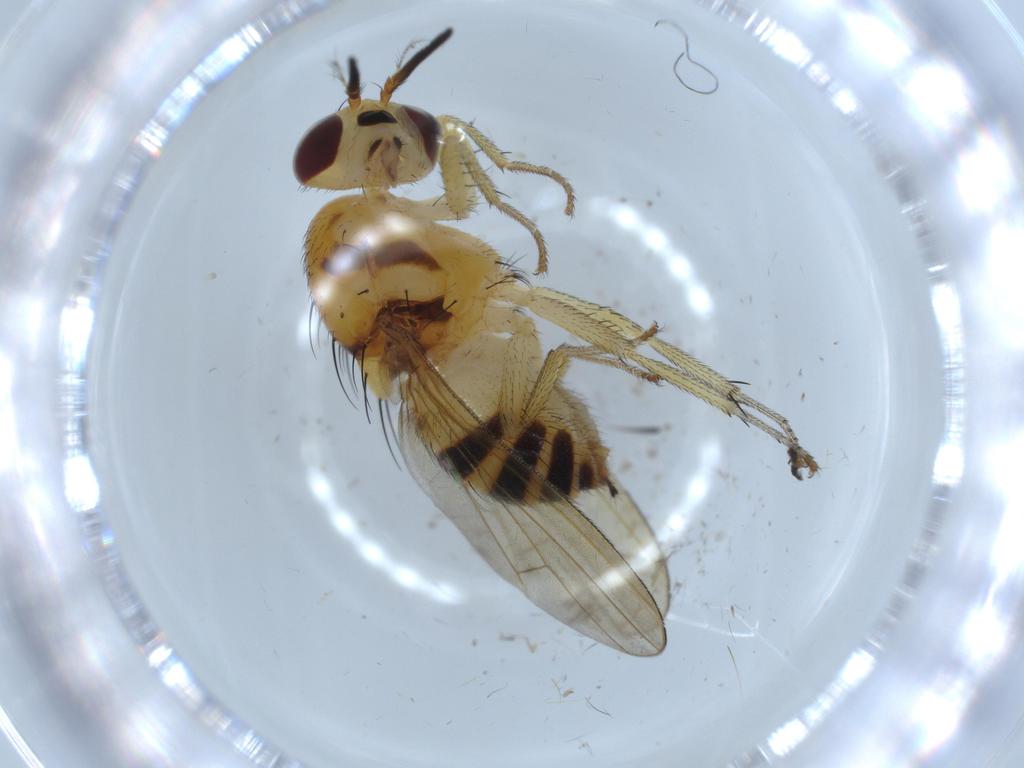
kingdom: Animalia
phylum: Arthropoda
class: Insecta
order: Diptera
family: Lauxaniidae
